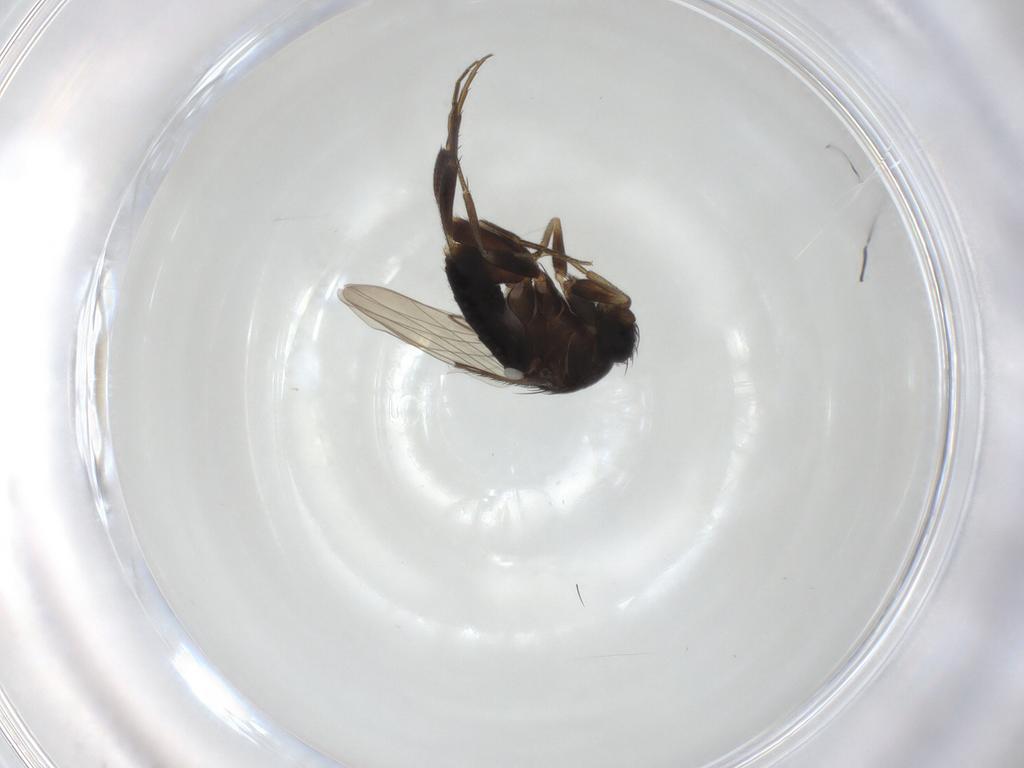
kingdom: Animalia
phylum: Arthropoda
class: Insecta
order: Diptera
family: Phoridae
